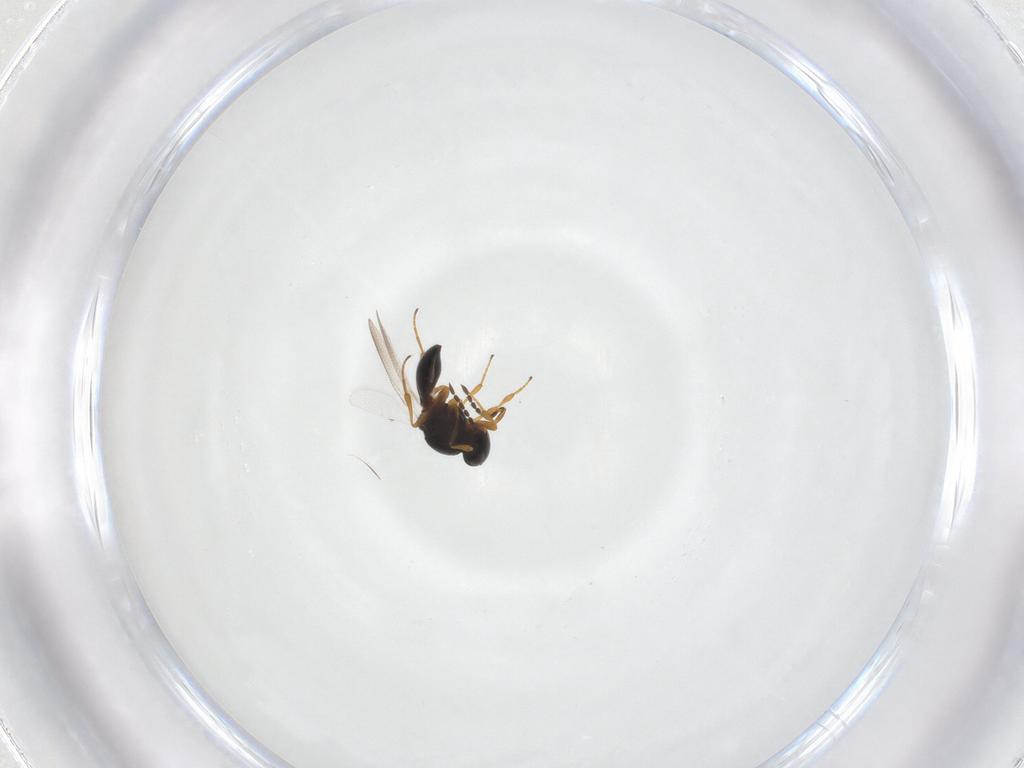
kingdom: Animalia
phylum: Arthropoda
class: Insecta
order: Hymenoptera
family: Platygastridae
